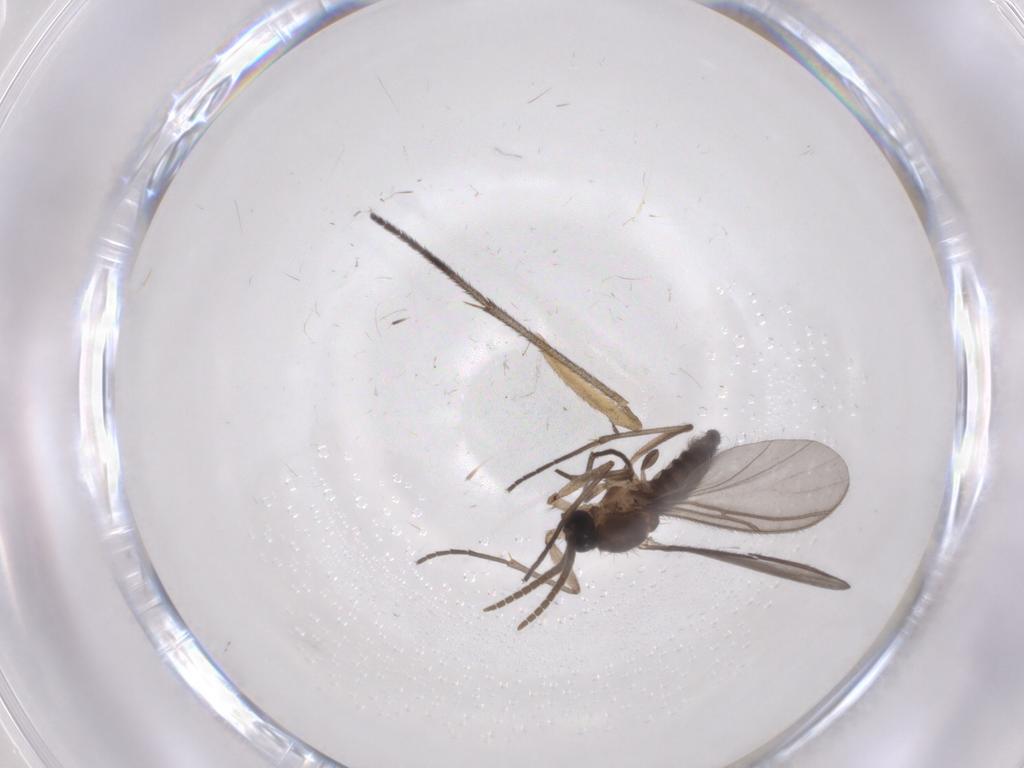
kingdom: Animalia
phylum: Arthropoda
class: Insecta
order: Diptera
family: Sciaridae
